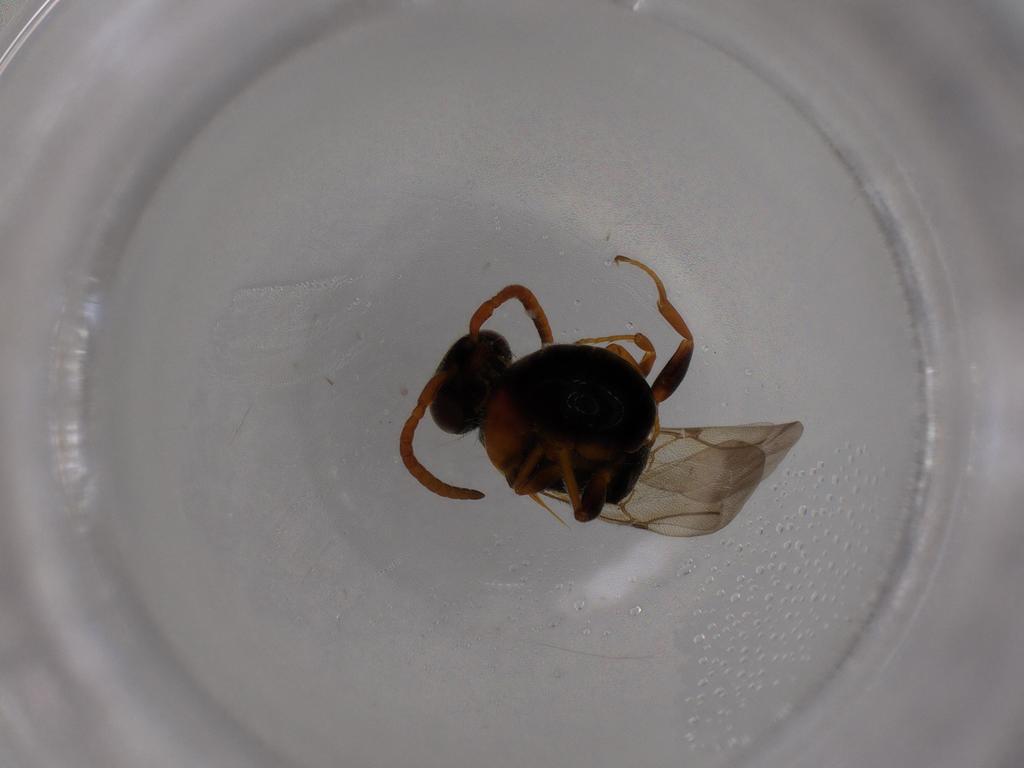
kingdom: Animalia
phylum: Arthropoda
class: Insecta
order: Hymenoptera
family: Bethylidae
